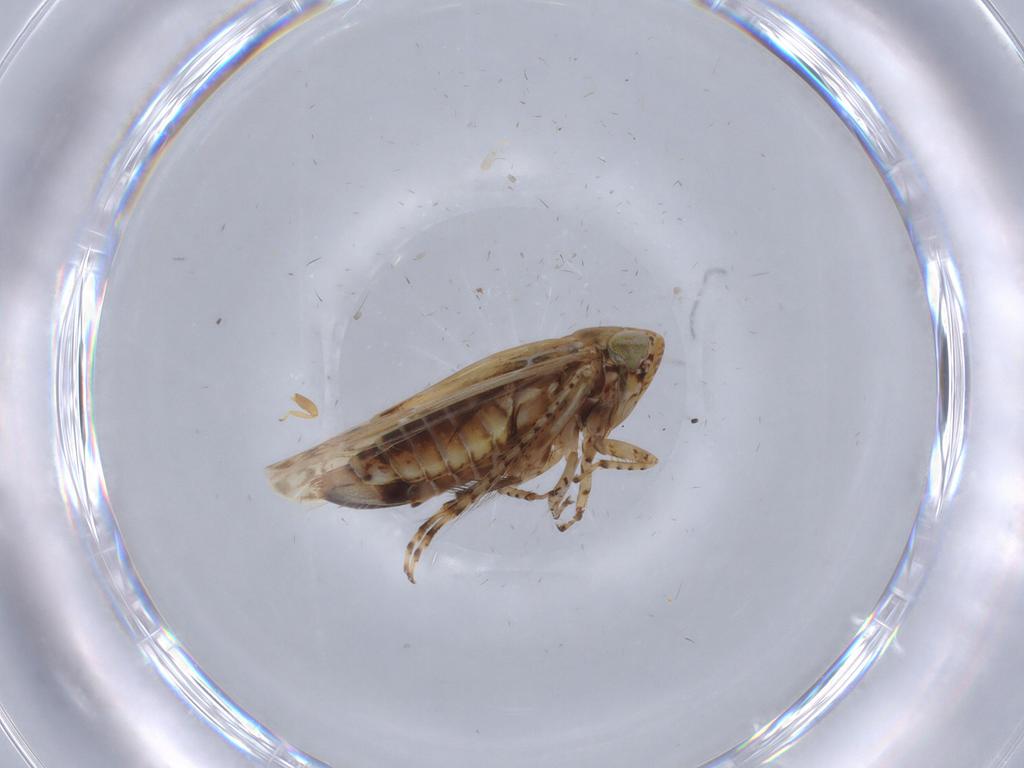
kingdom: Animalia
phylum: Arthropoda
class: Insecta
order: Hemiptera
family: Cicadellidae
